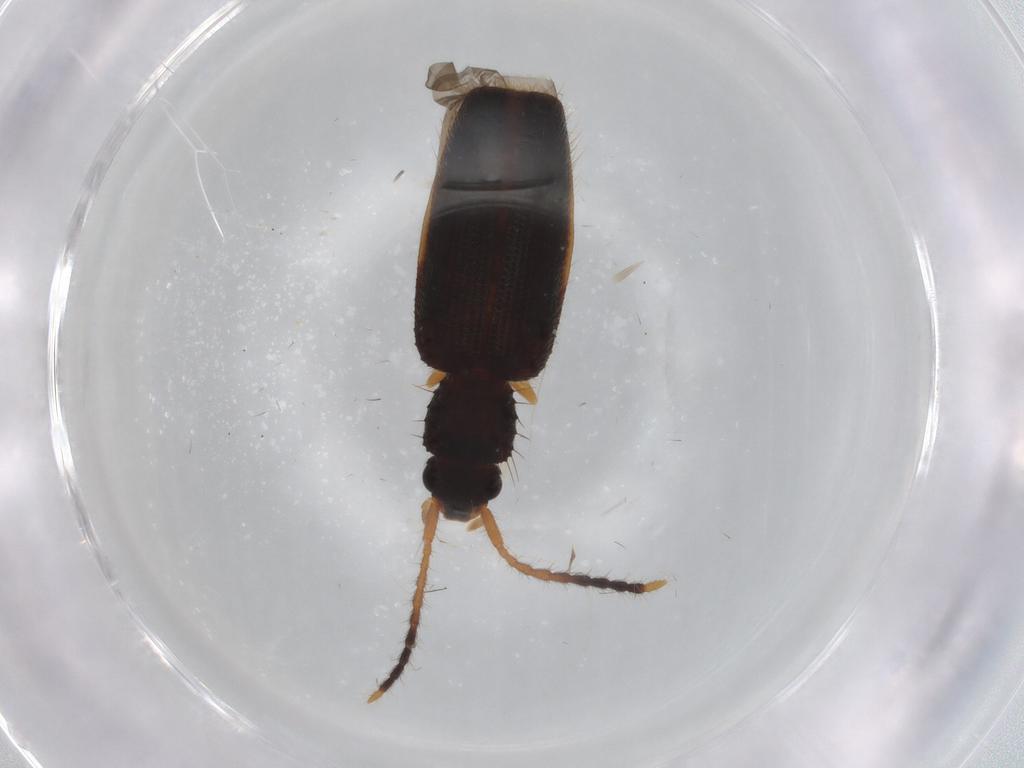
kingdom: Animalia
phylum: Arthropoda
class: Insecta
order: Coleoptera
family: Silvanidae
